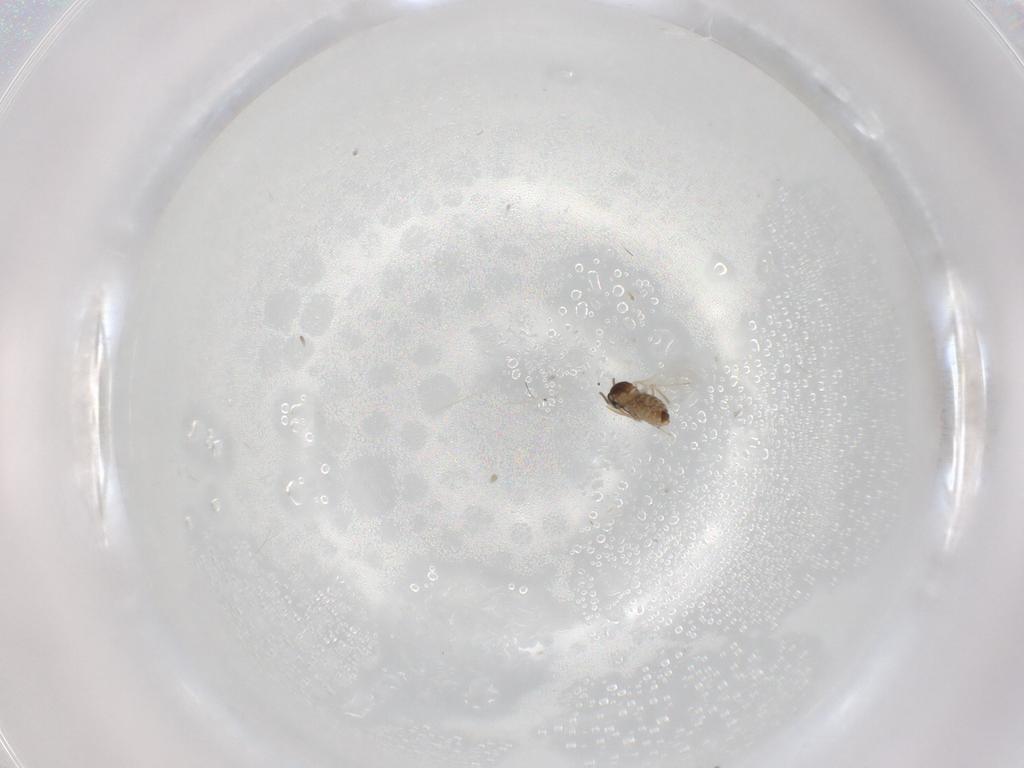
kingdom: Animalia
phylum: Arthropoda
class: Insecta
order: Diptera
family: Cecidomyiidae
